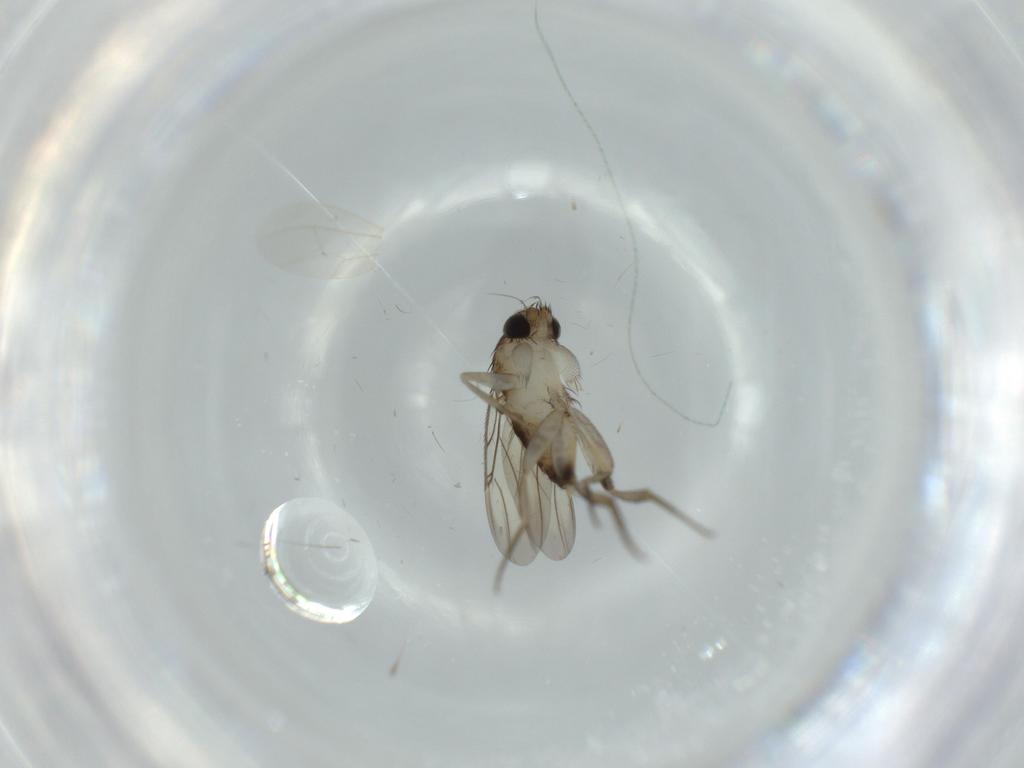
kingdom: Animalia
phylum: Arthropoda
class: Insecta
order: Diptera
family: Phoridae
